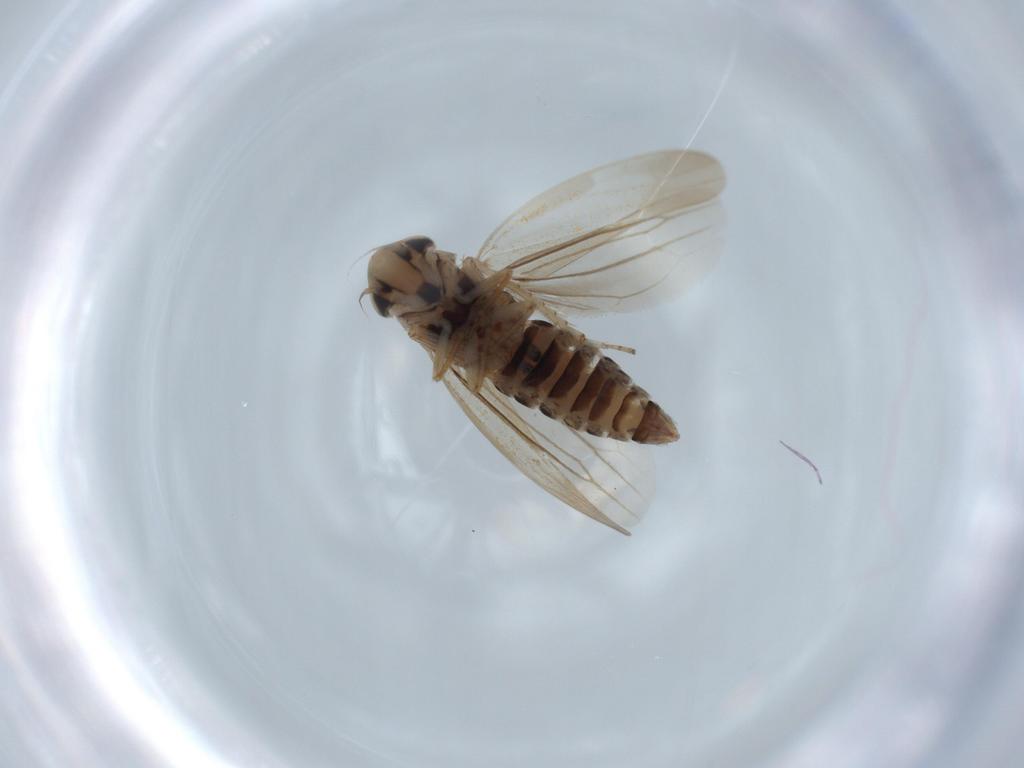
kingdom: Animalia
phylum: Arthropoda
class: Insecta
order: Hemiptera
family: Cicadellidae
